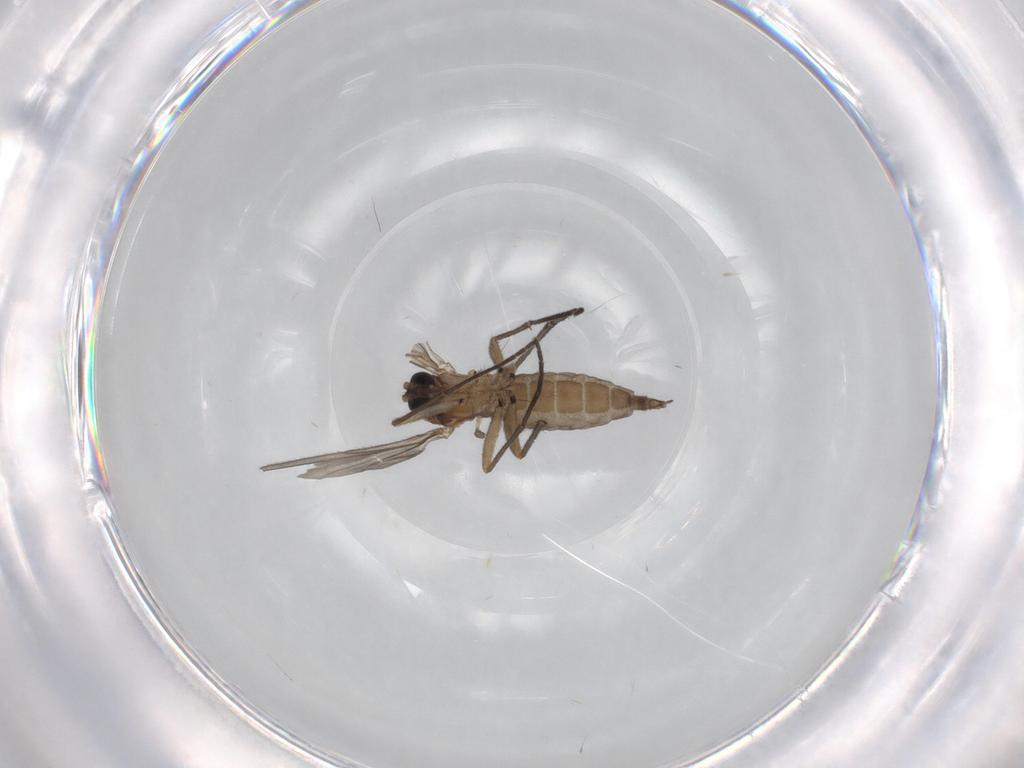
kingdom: Animalia
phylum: Arthropoda
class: Insecta
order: Diptera
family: Sciaridae
